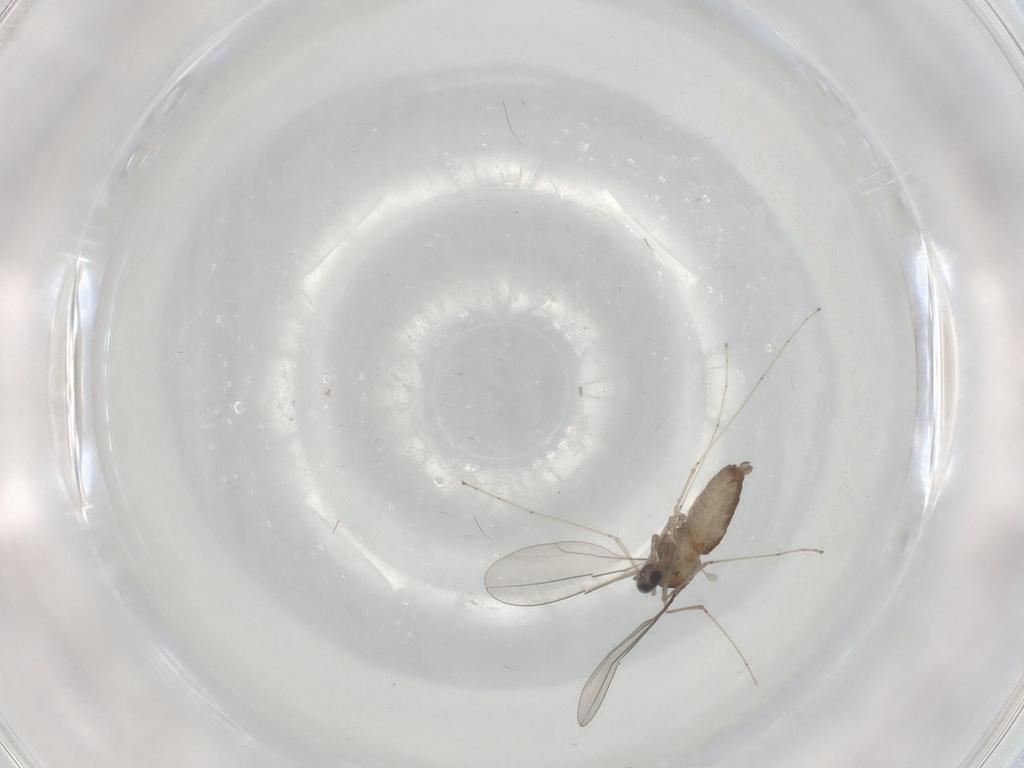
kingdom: Animalia
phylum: Arthropoda
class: Insecta
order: Diptera
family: Cecidomyiidae
